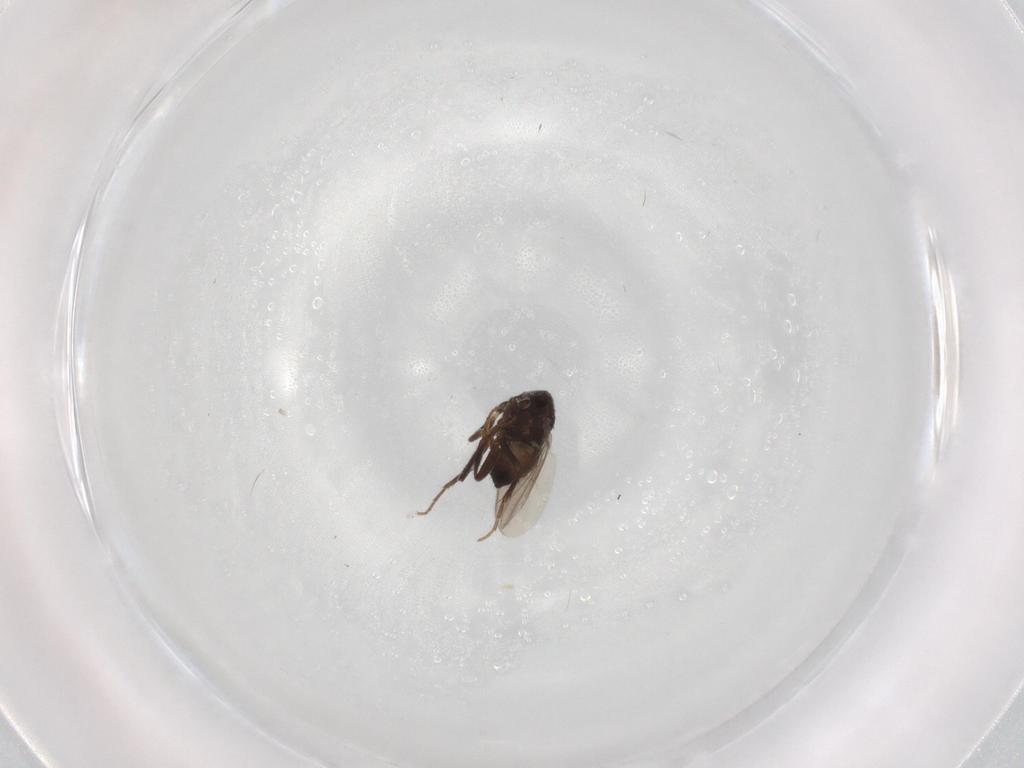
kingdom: Animalia
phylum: Arthropoda
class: Insecta
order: Diptera
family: Sphaeroceridae
